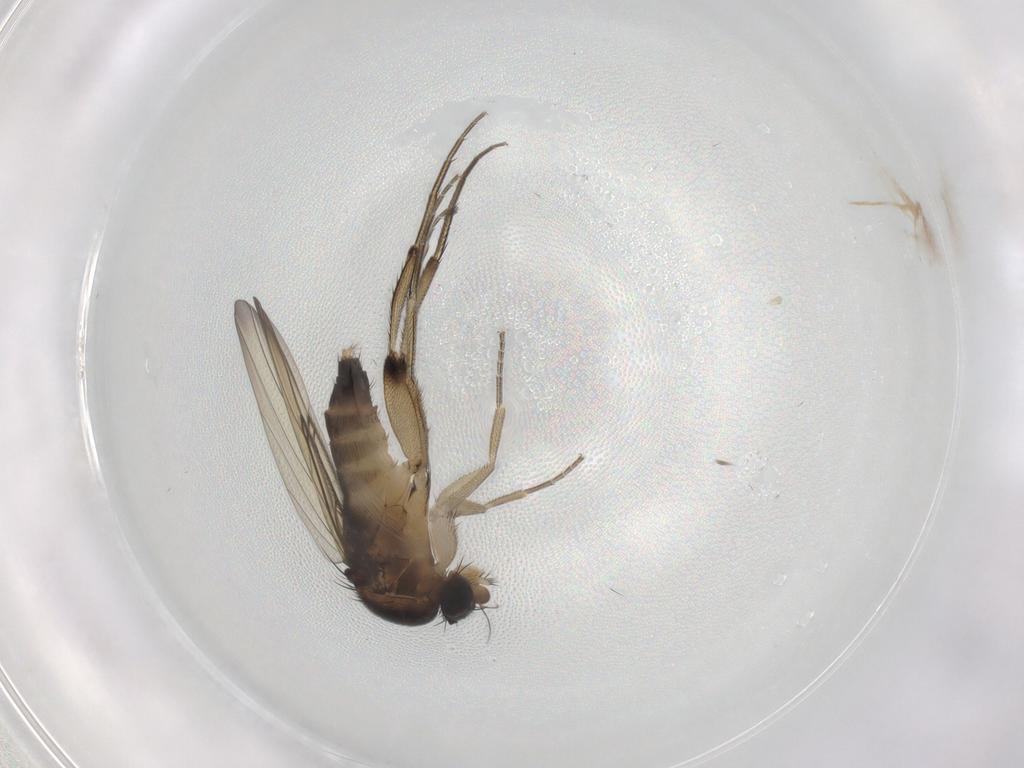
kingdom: Animalia
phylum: Arthropoda
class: Insecta
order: Diptera
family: Phoridae
